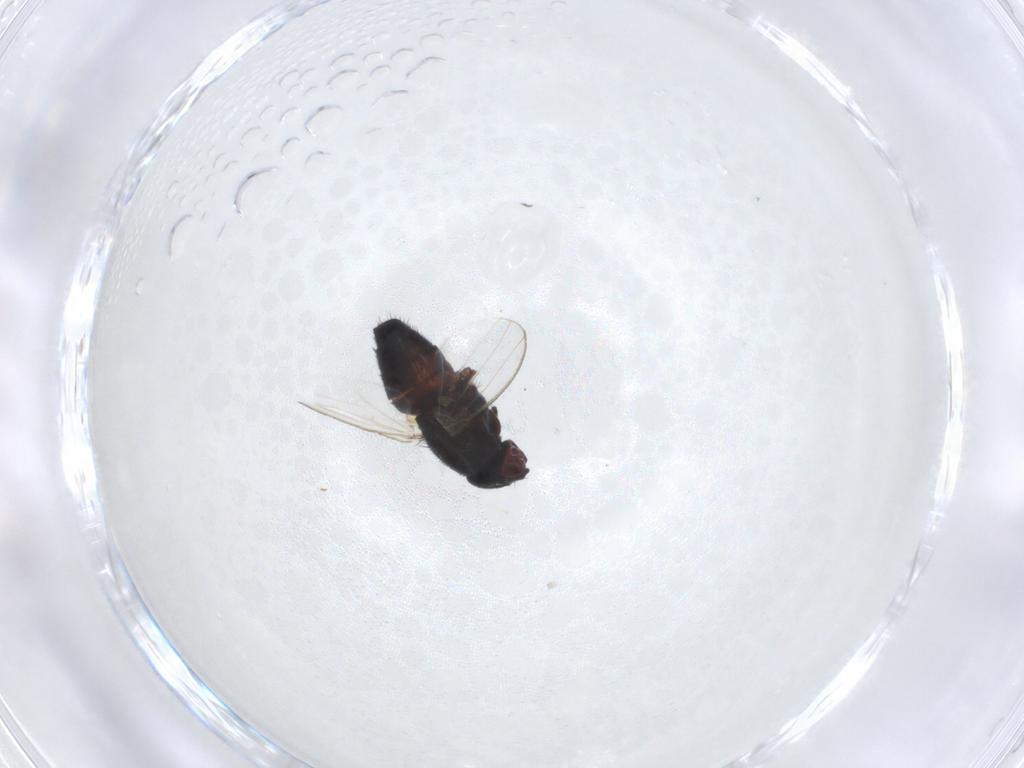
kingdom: Animalia
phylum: Arthropoda
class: Insecta
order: Diptera
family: Milichiidae
